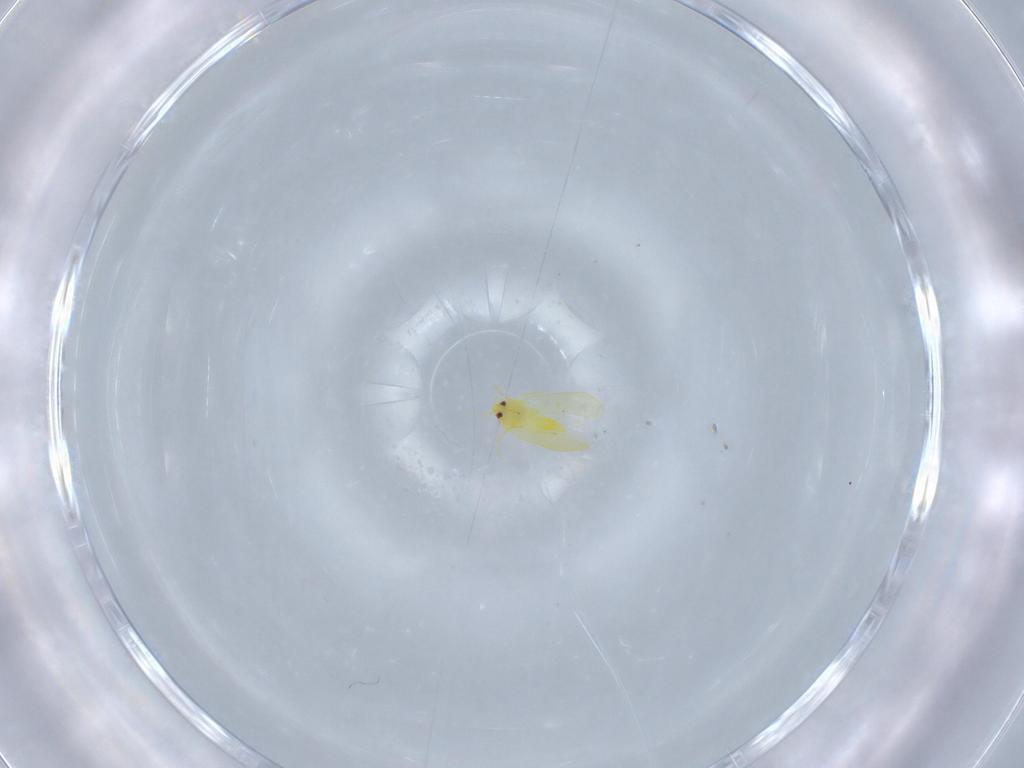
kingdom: Animalia
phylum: Arthropoda
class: Insecta
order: Hemiptera
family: Aleyrodidae
